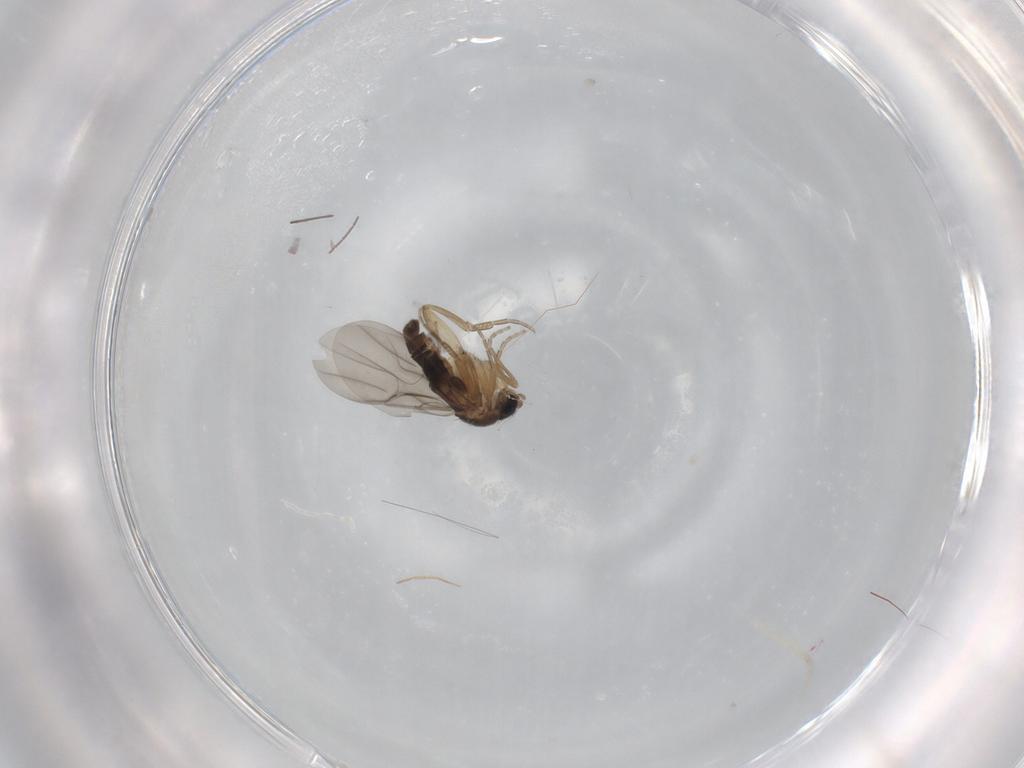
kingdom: Animalia
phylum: Arthropoda
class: Insecta
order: Diptera
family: Phoridae
